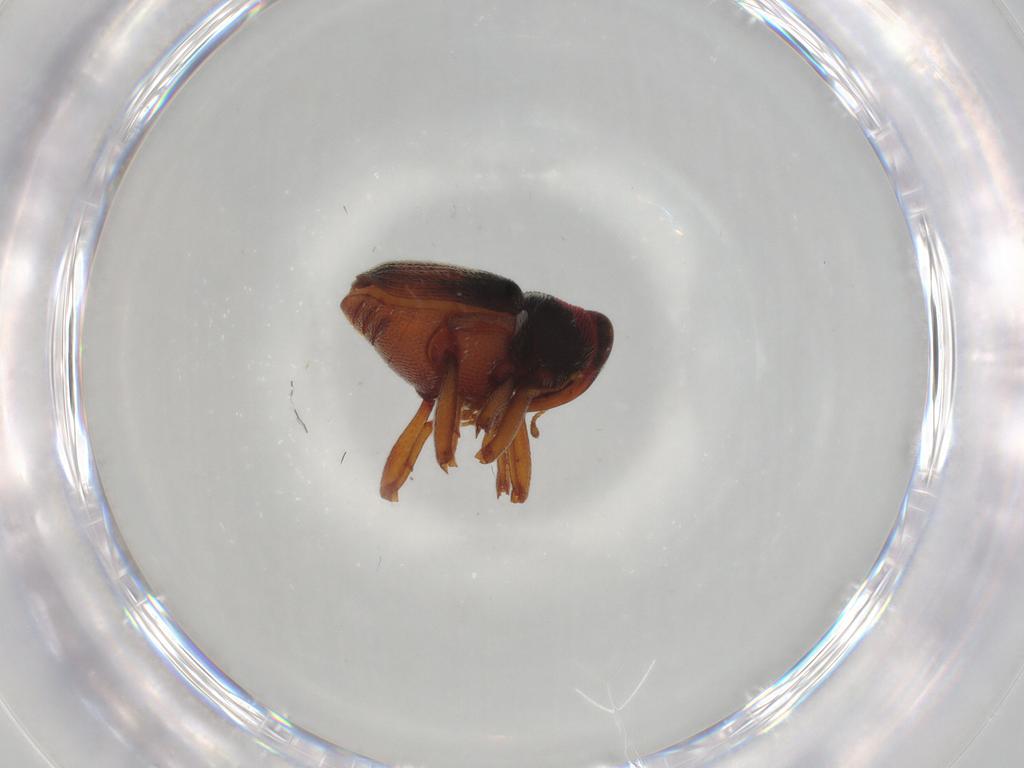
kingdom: Animalia
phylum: Arthropoda
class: Insecta
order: Coleoptera
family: Curculionidae
